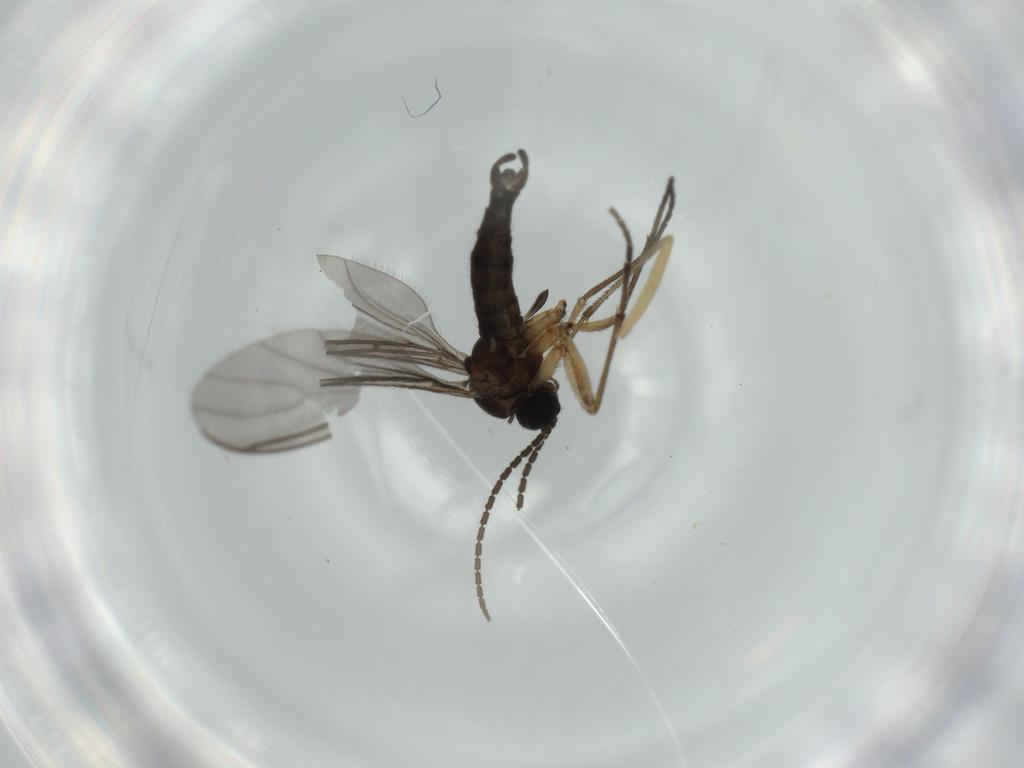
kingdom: Animalia
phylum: Arthropoda
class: Insecta
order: Diptera
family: Sciaridae
